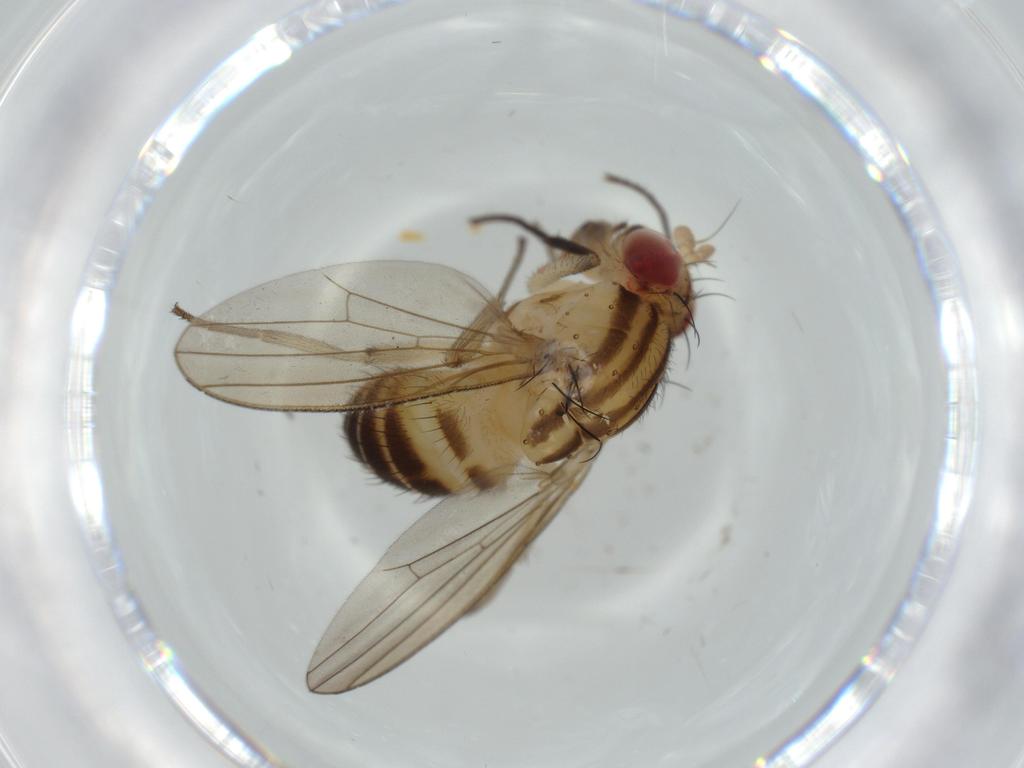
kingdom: Animalia
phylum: Arthropoda
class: Insecta
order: Diptera
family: Lauxaniidae
